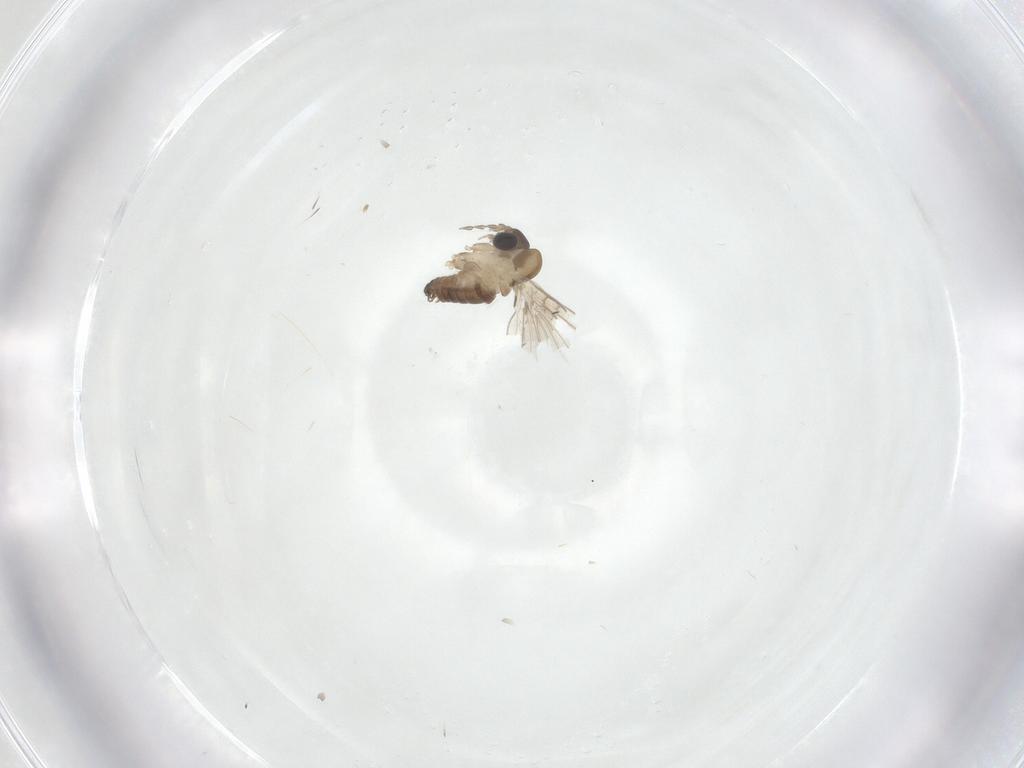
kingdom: Animalia
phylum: Arthropoda
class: Insecta
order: Diptera
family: Psychodidae
